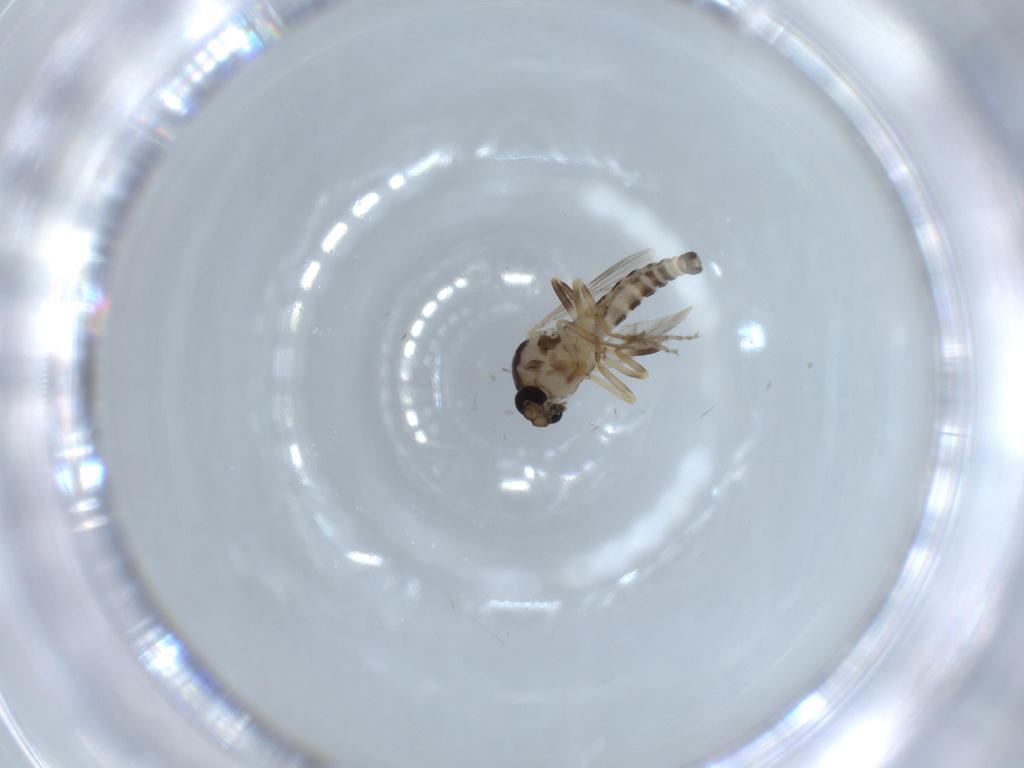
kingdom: Animalia
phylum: Arthropoda
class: Insecta
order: Diptera
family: Ceratopogonidae
